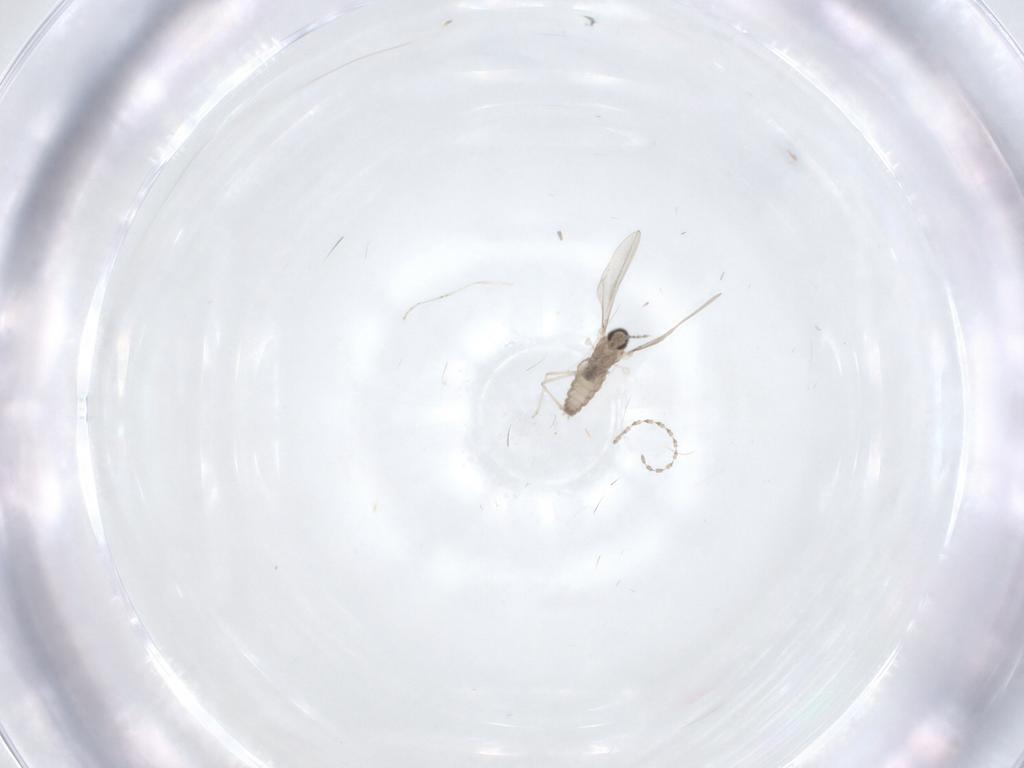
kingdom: Animalia
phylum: Arthropoda
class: Insecta
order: Diptera
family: Cecidomyiidae
